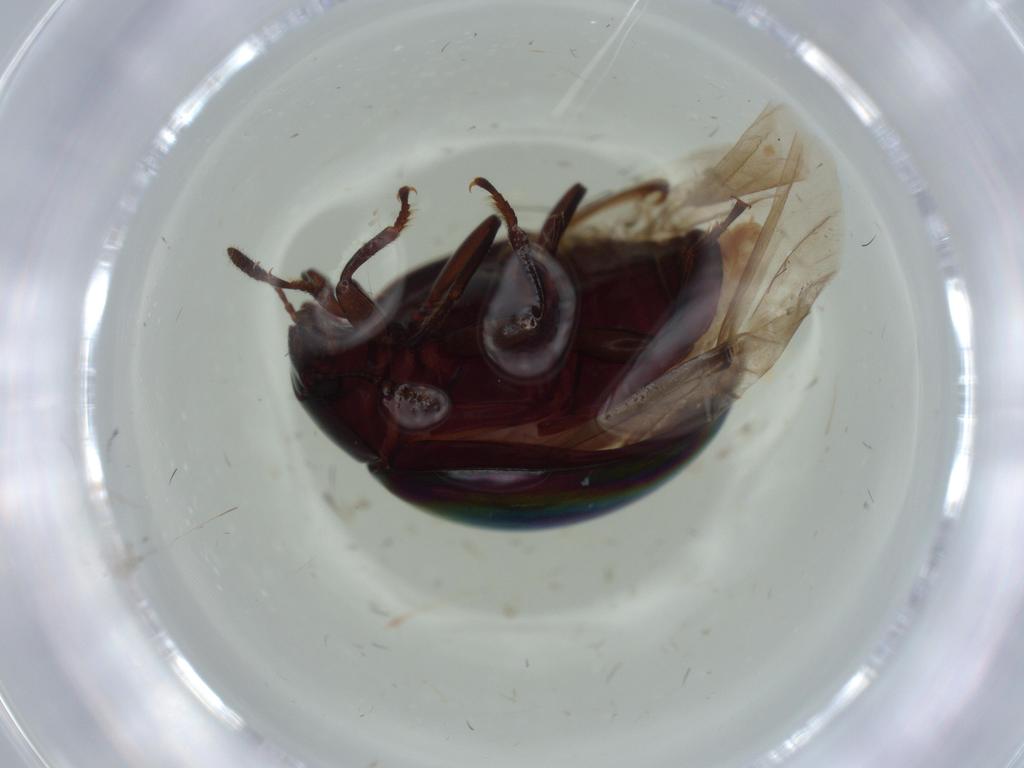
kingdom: Animalia
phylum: Arthropoda
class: Insecta
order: Coleoptera
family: Tenebrionidae
